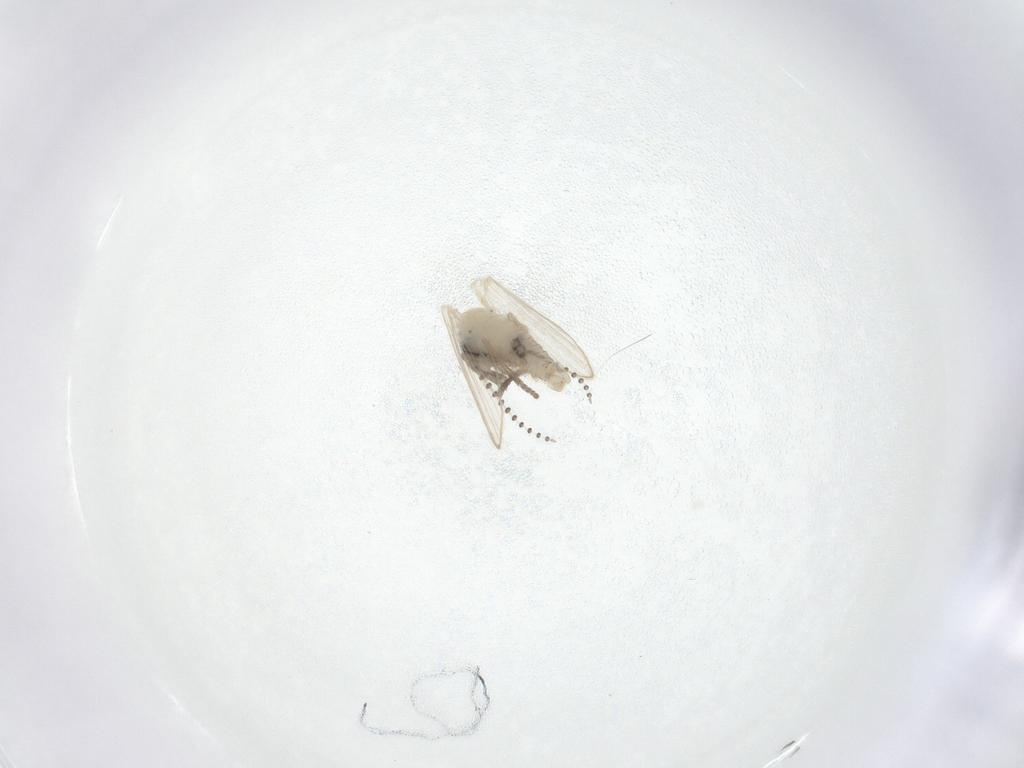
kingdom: Animalia
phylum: Arthropoda
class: Insecta
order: Diptera
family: Psychodidae
